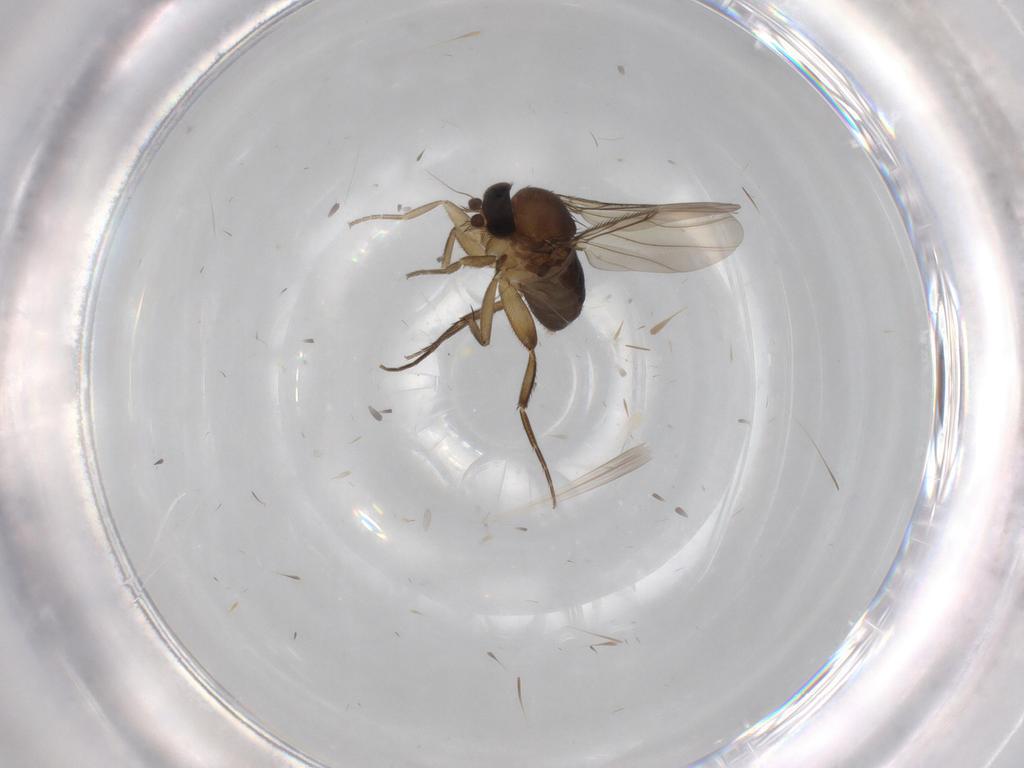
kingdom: Animalia
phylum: Arthropoda
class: Insecta
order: Diptera
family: Phoridae
